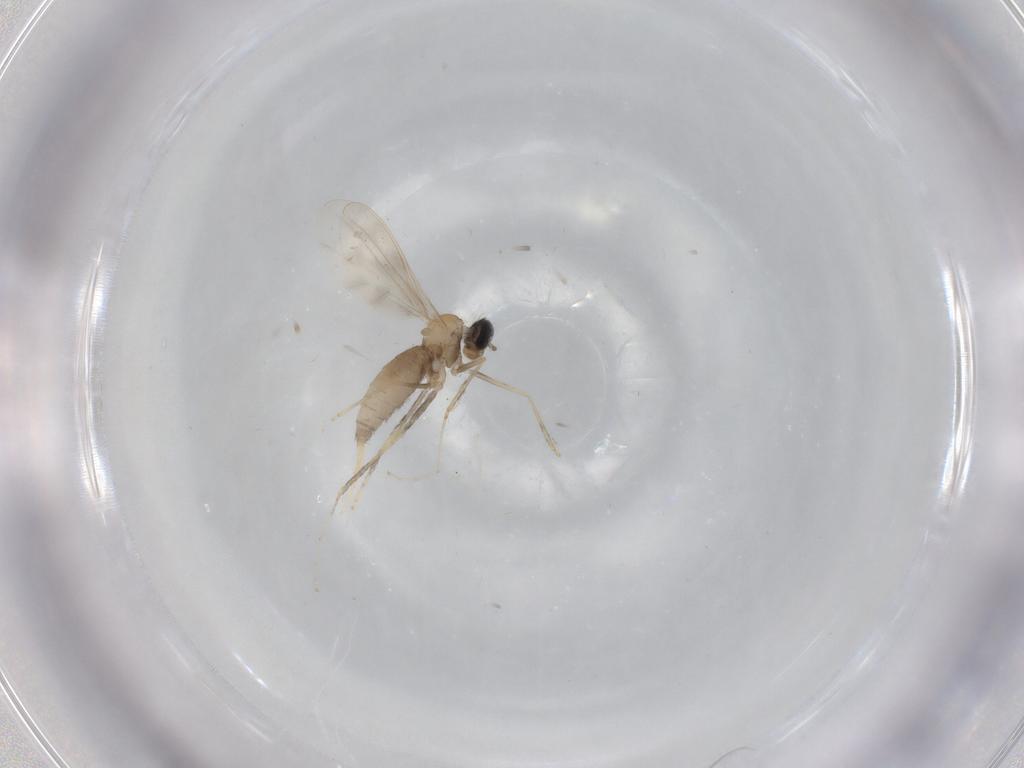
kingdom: Animalia
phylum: Arthropoda
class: Insecta
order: Diptera
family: Cecidomyiidae
